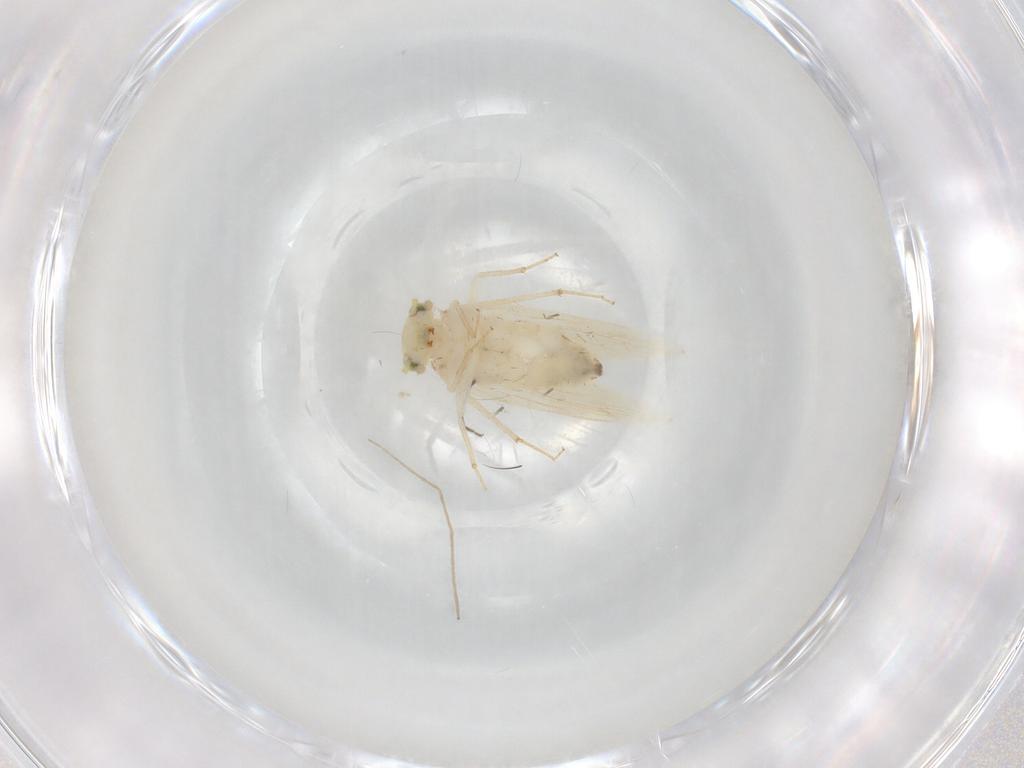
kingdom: Animalia
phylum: Arthropoda
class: Insecta
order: Psocodea
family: Lepidopsocidae
